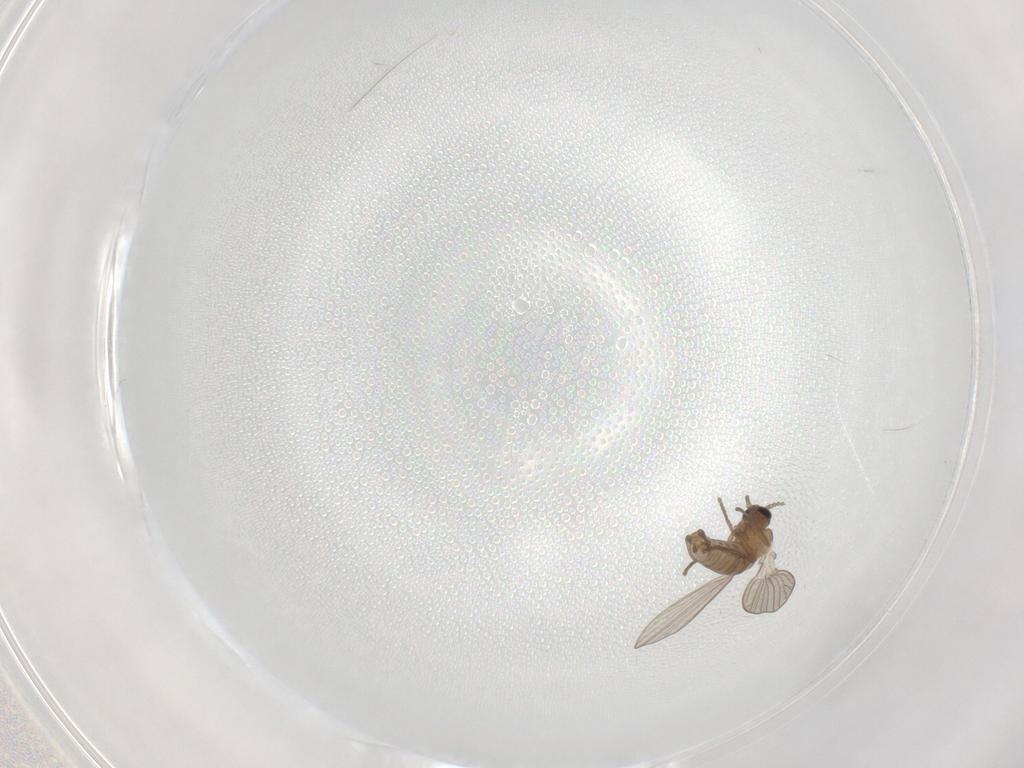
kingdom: Animalia
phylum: Arthropoda
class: Insecta
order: Diptera
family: Psychodidae
